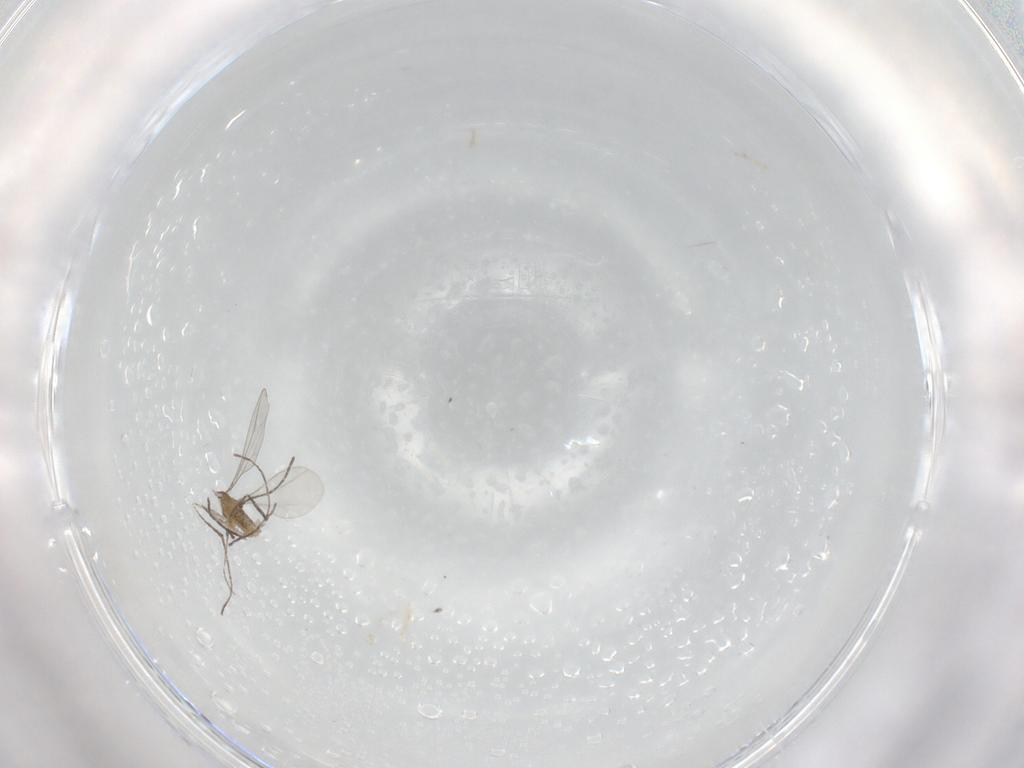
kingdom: Animalia
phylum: Arthropoda
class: Insecta
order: Diptera
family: Cecidomyiidae
